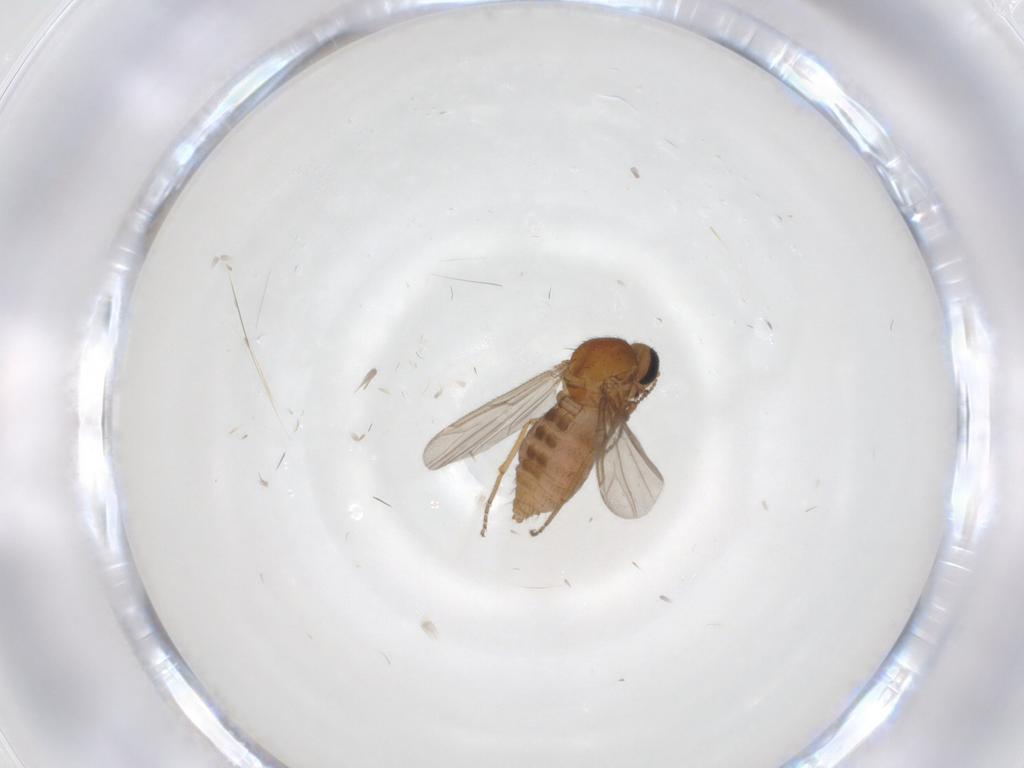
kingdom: Animalia
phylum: Arthropoda
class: Insecta
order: Diptera
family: Ceratopogonidae
